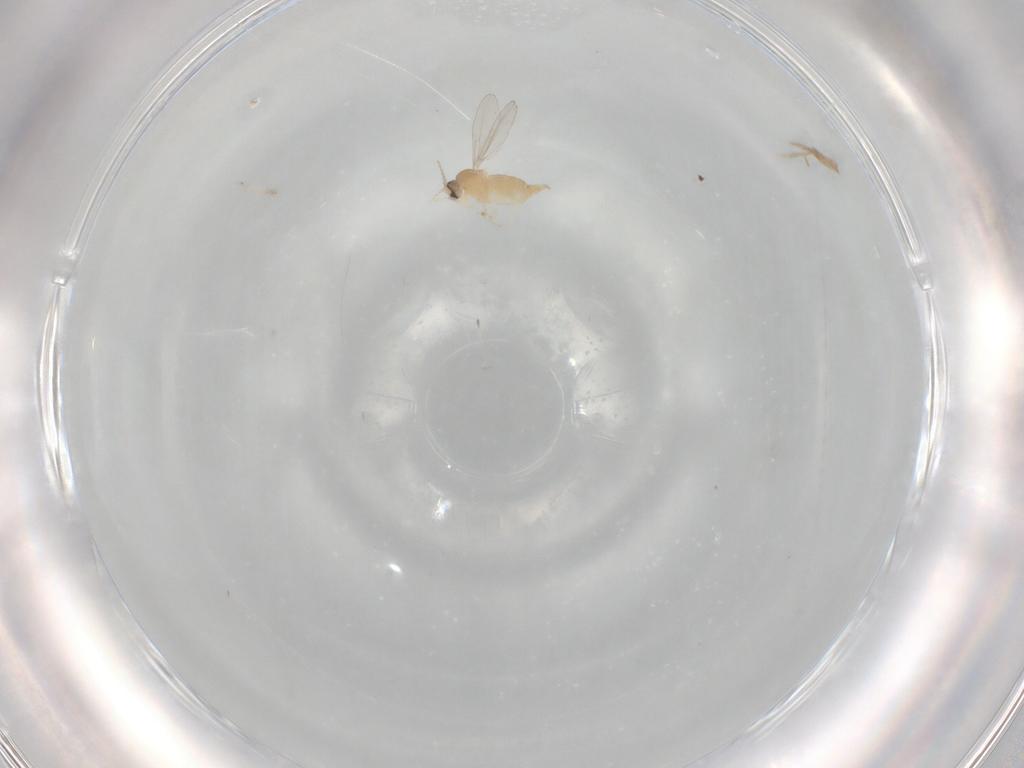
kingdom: Animalia
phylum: Arthropoda
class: Insecta
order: Diptera
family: Cecidomyiidae
